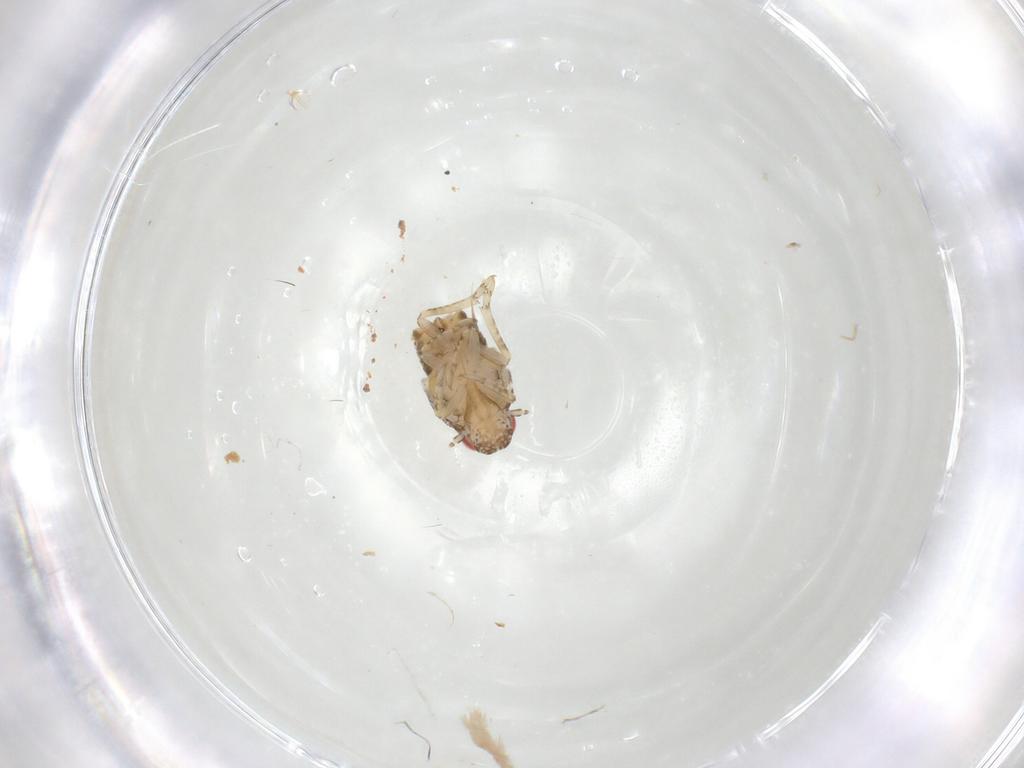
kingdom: Animalia
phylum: Arthropoda
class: Insecta
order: Hemiptera
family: Flatidae
